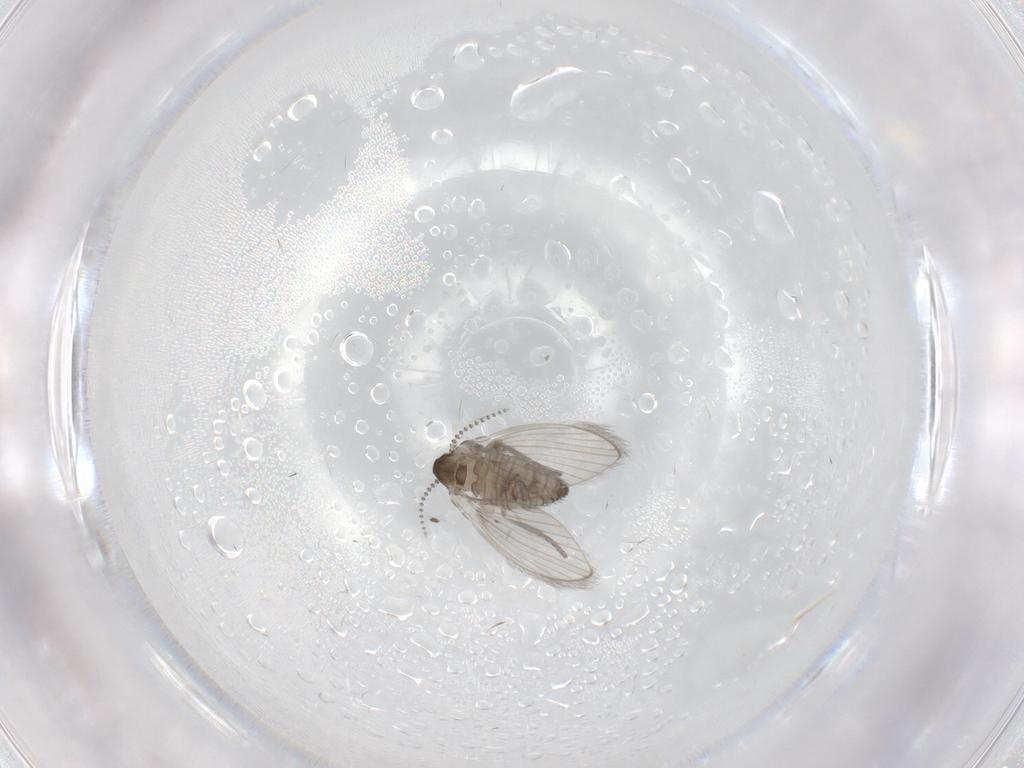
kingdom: Animalia
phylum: Arthropoda
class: Insecta
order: Diptera
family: Psychodidae
